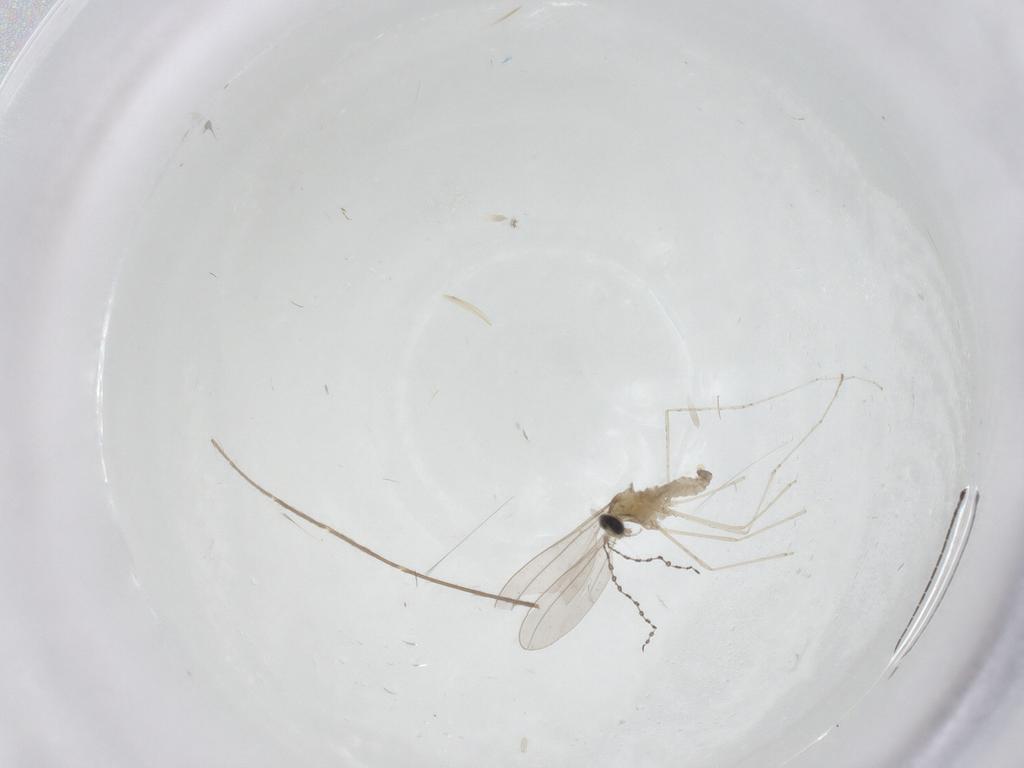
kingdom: Animalia
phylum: Arthropoda
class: Insecta
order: Diptera
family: Cecidomyiidae
